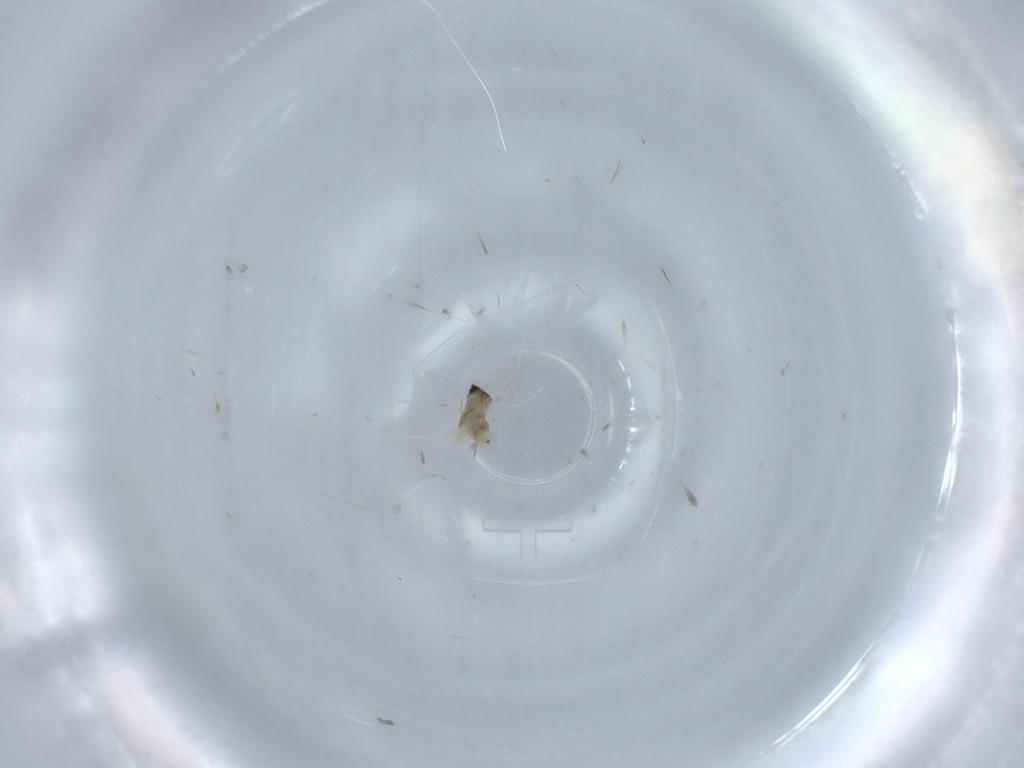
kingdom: Animalia
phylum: Arthropoda
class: Insecta
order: Diptera
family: Cecidomyiidae
